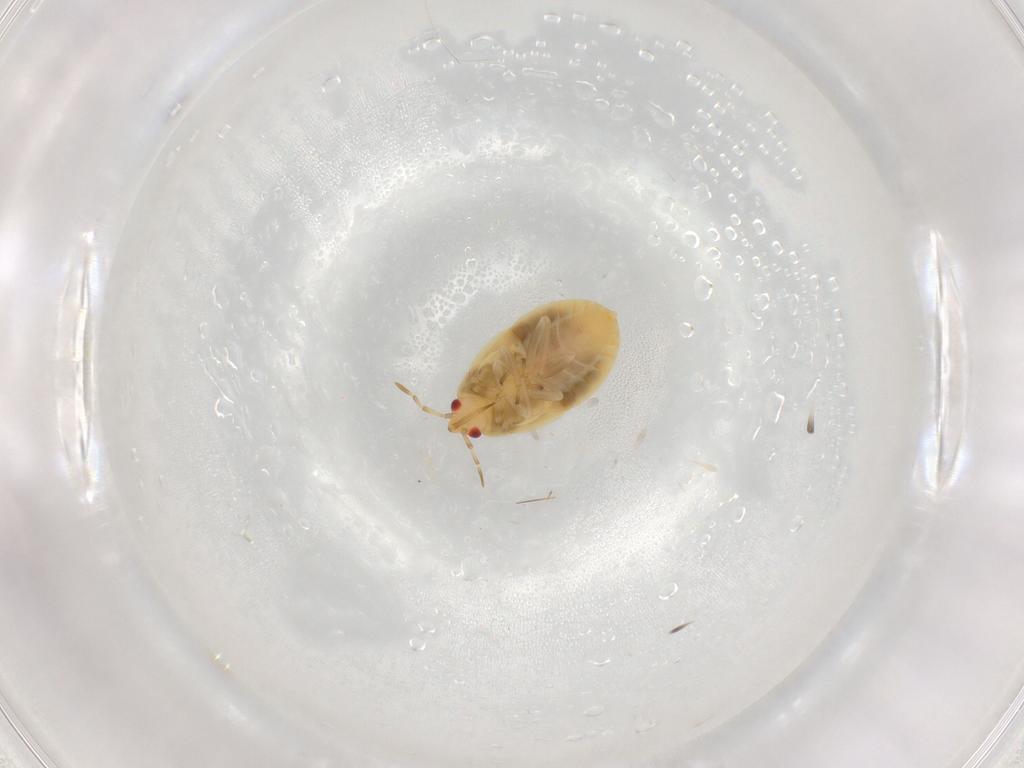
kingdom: Animalia
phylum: Arthropoda
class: Insecta
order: Hemiptera
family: Anthocoridae
